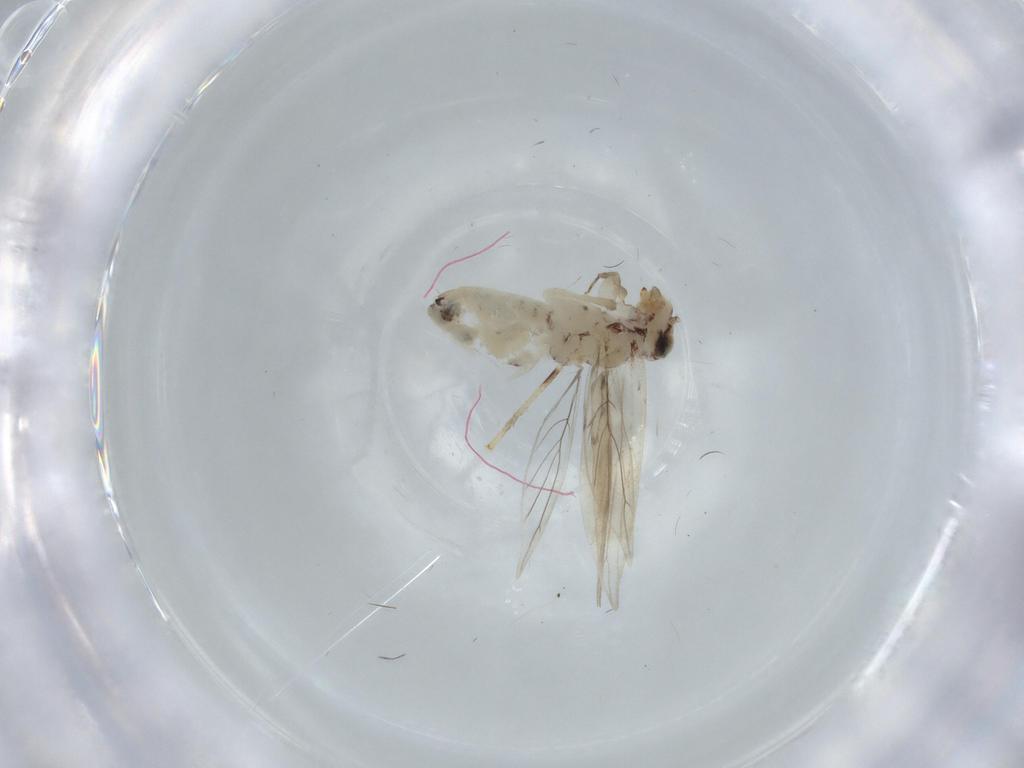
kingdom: Animalia
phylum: Arthropoda
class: Insecta
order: Psocodea
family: Lepidopsocidae
